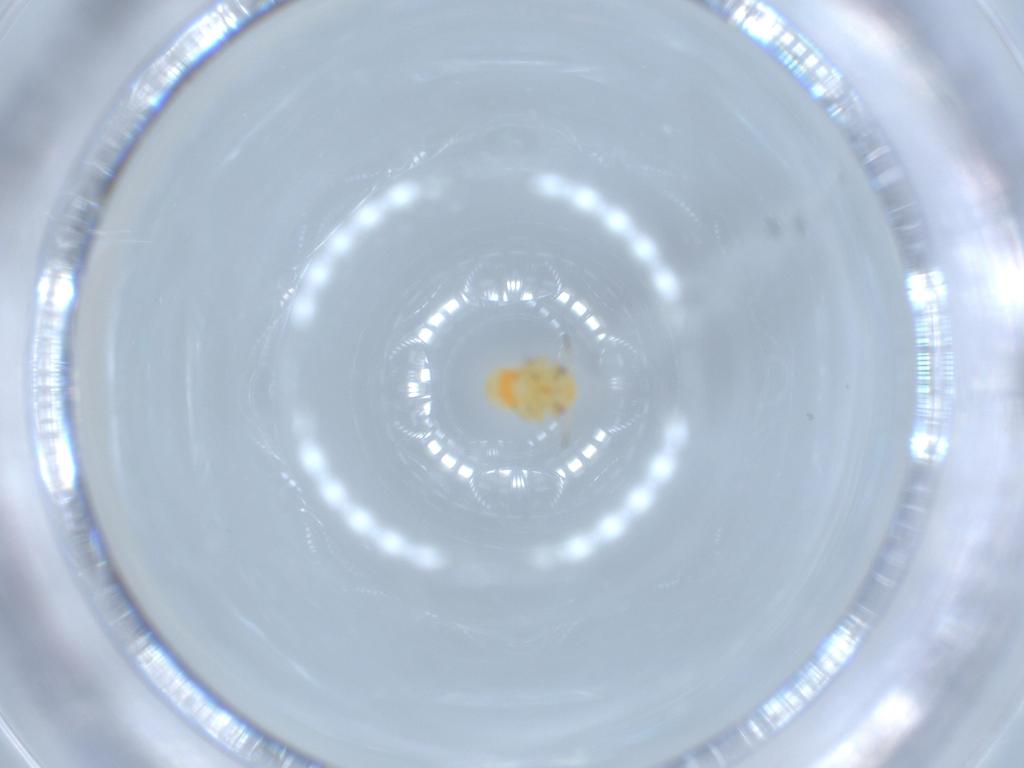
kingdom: Animalia
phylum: Arthropoda
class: Insecta
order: Hemiptera
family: Psyllidae
